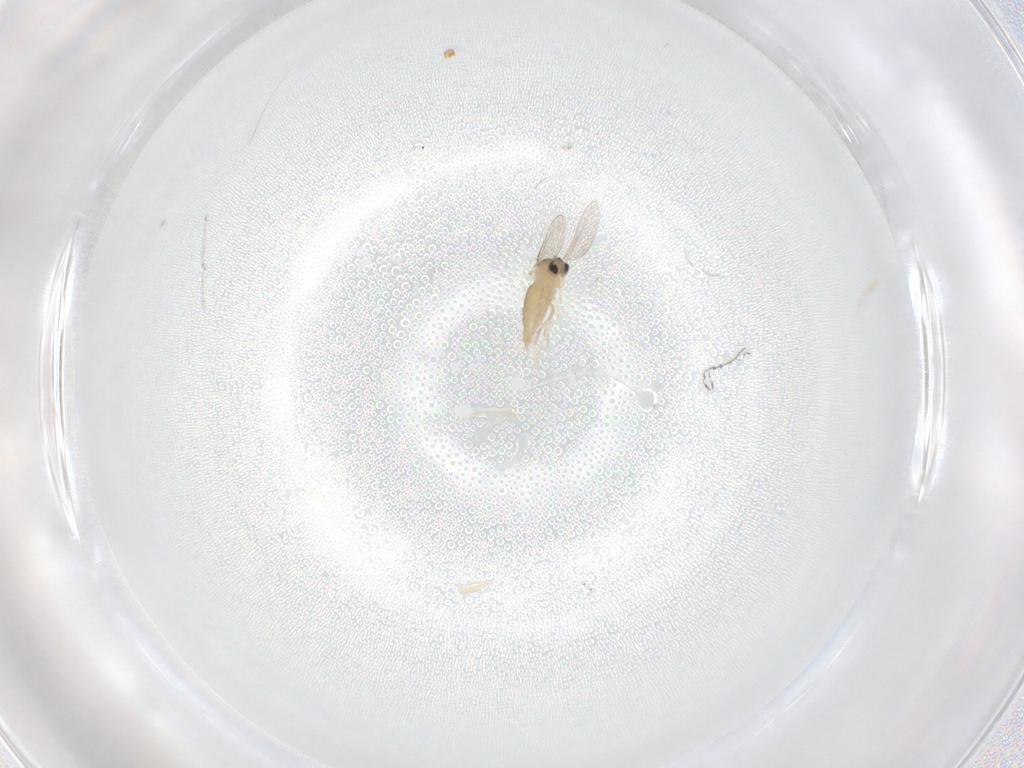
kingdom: Animalia
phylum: Arthropoda
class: Insecta
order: Diptera
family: Cecidomyiidae
